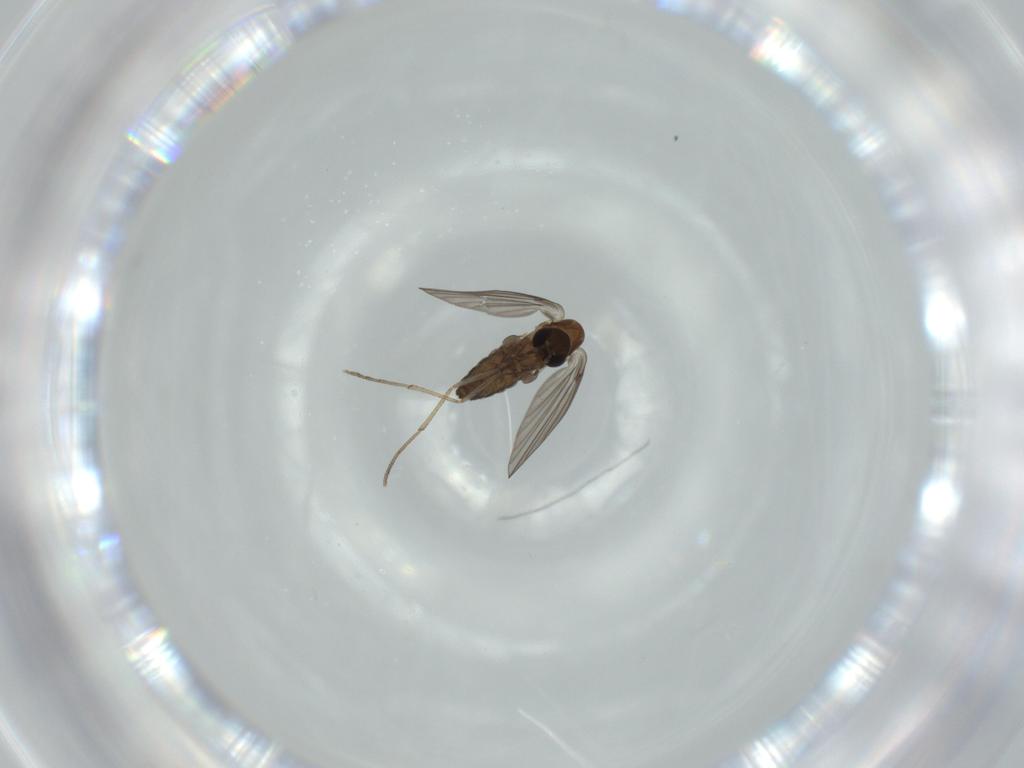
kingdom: Animalia
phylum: Arthropoda
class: Insecta
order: Diptera
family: Psychodidae
